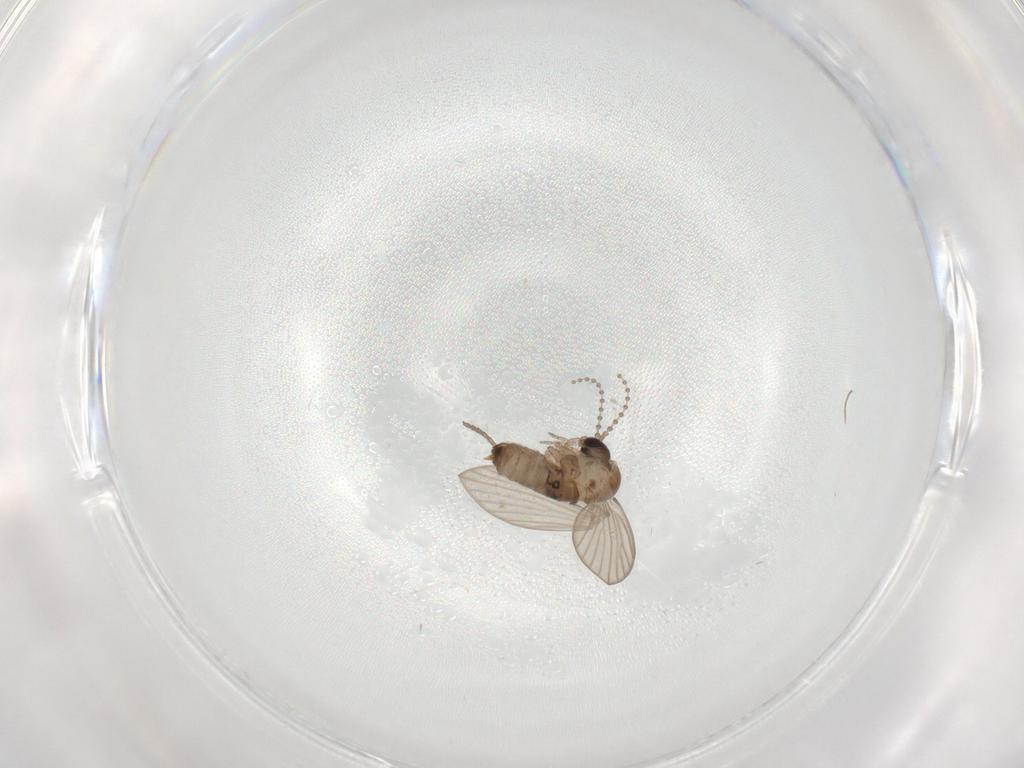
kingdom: Animalia
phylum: Arthropoda
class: Insecta
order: Diptera
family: Psychodidae
